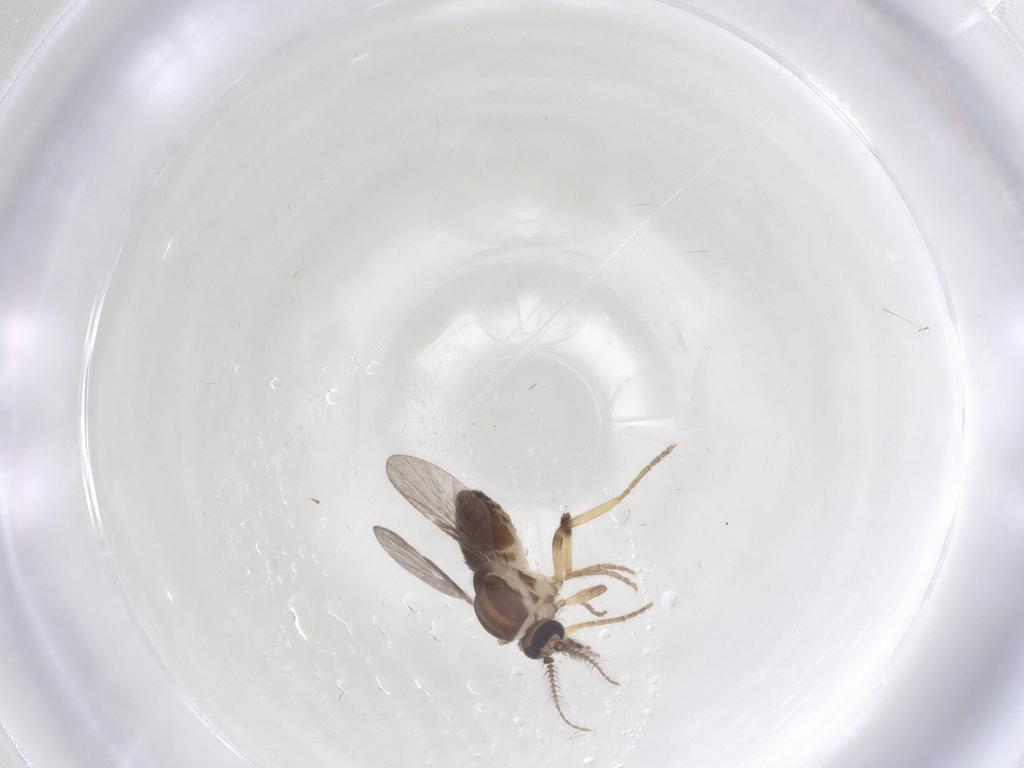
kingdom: Animalia
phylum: Arthropoda
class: Insecta
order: Diptera
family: Ceratopogonidae
